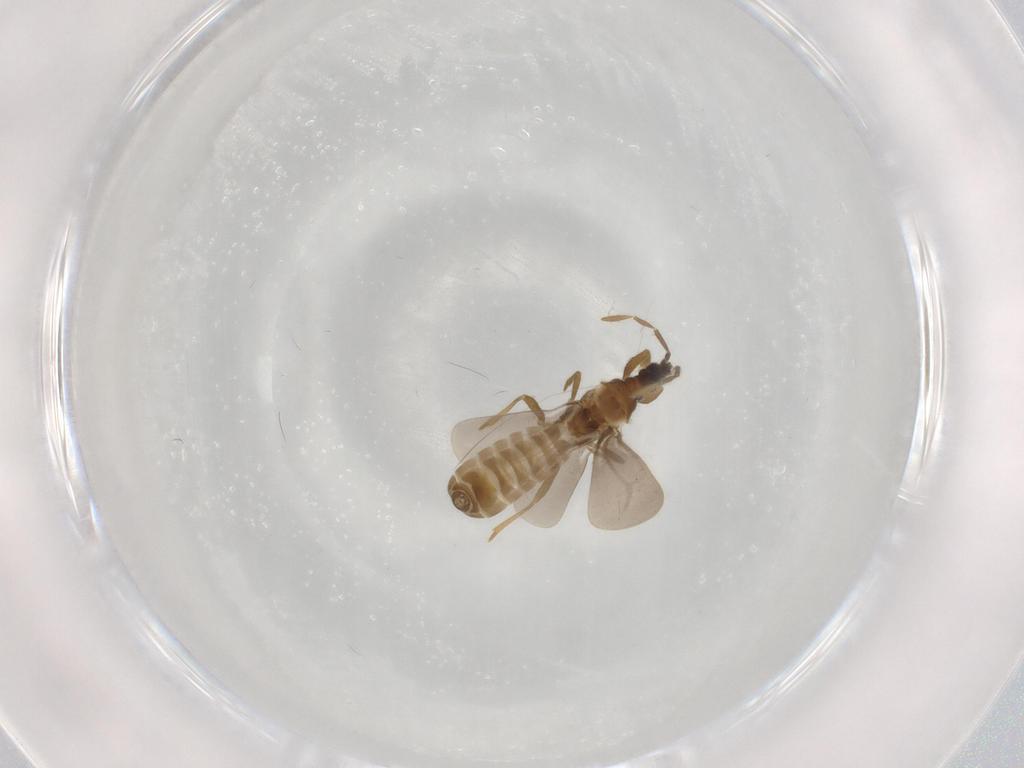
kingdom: Animalia
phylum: Arthropoda
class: Insecta
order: Hemiptera
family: Enicocephalidae
